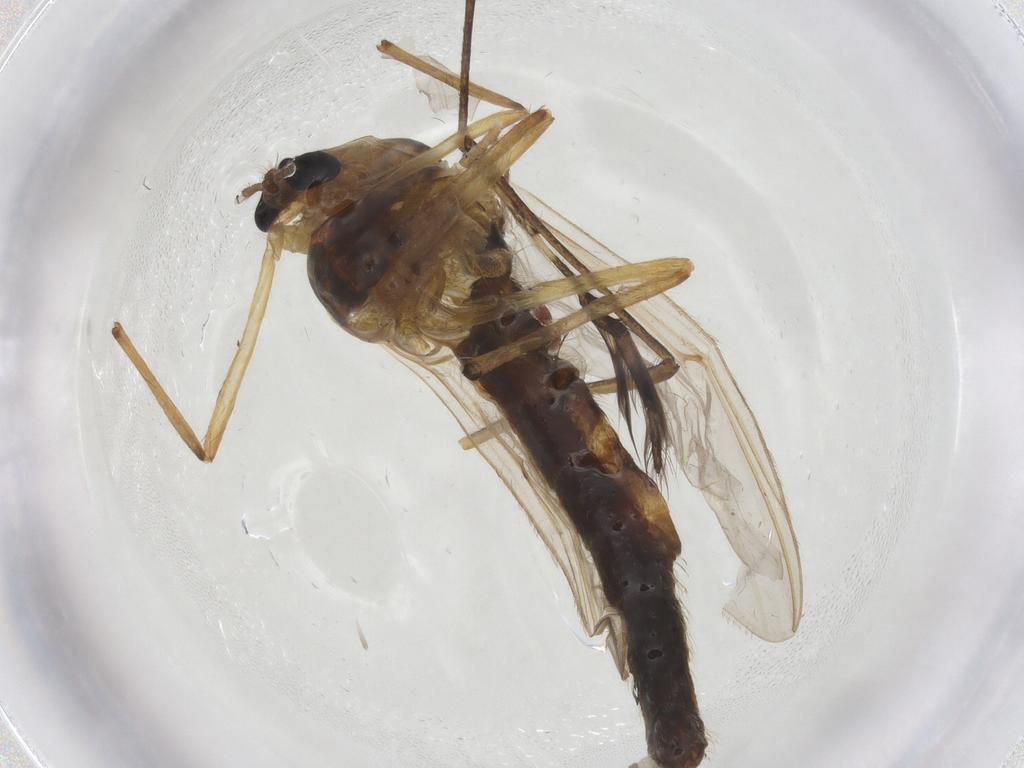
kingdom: Animalia
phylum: Arthropoda
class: Insecta
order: Diptera
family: Chironomidae
